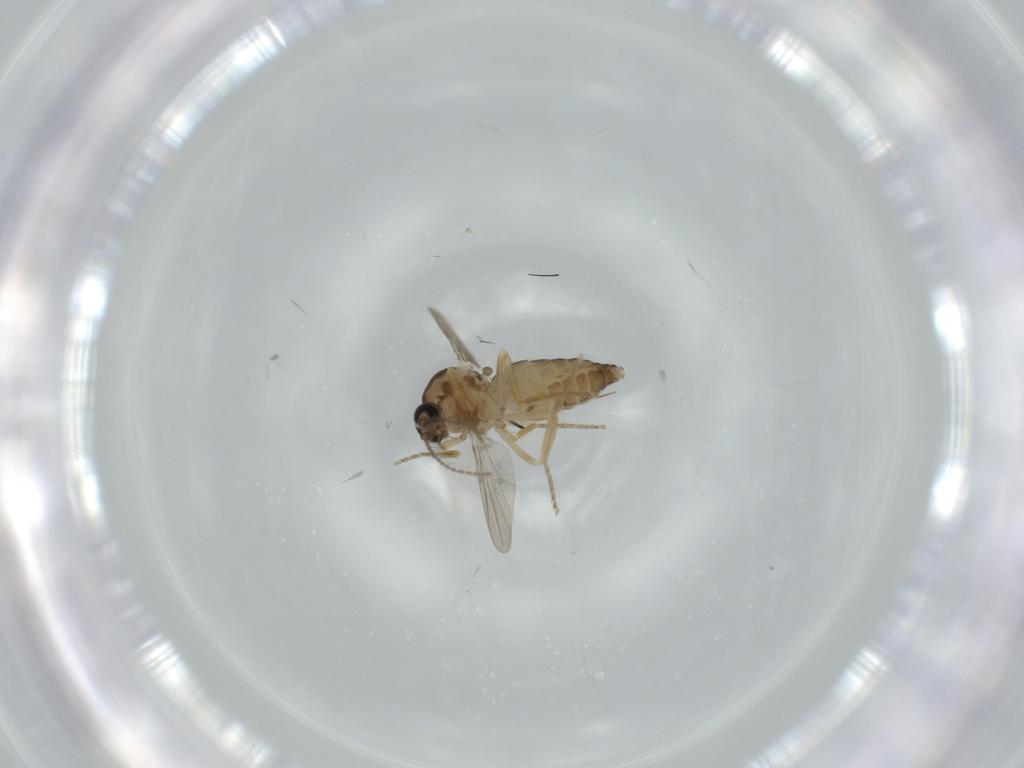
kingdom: Animalia
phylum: Arthropoda
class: Insecta
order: Diptera
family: Ceratopogonidae
